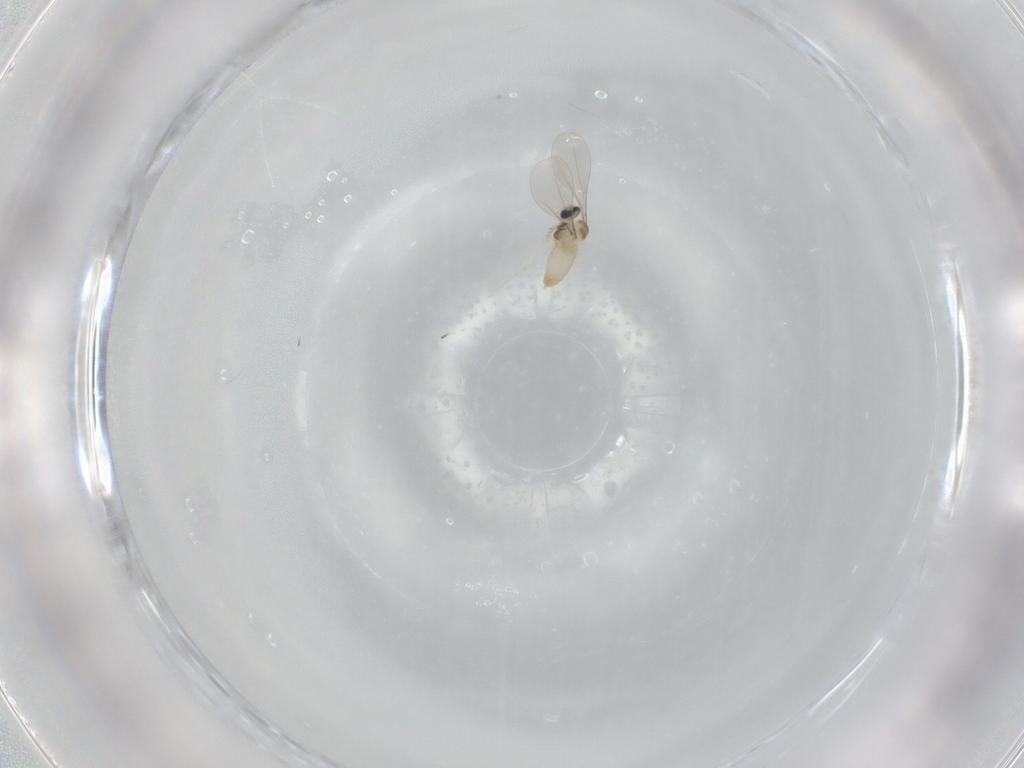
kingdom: Animalia
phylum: Arthropoda
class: Insecta
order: Diptera
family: Cecidomyiidae
